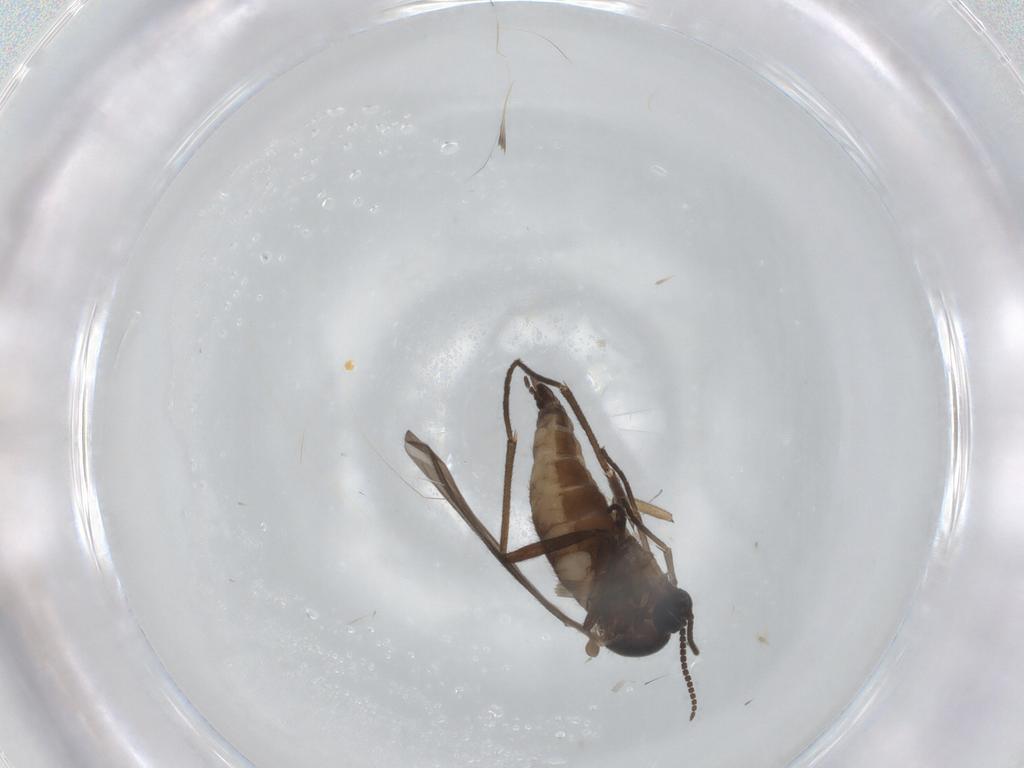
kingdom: Animalia
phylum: Arthropoda
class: Insecta
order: Diptera
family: Sciaridae
